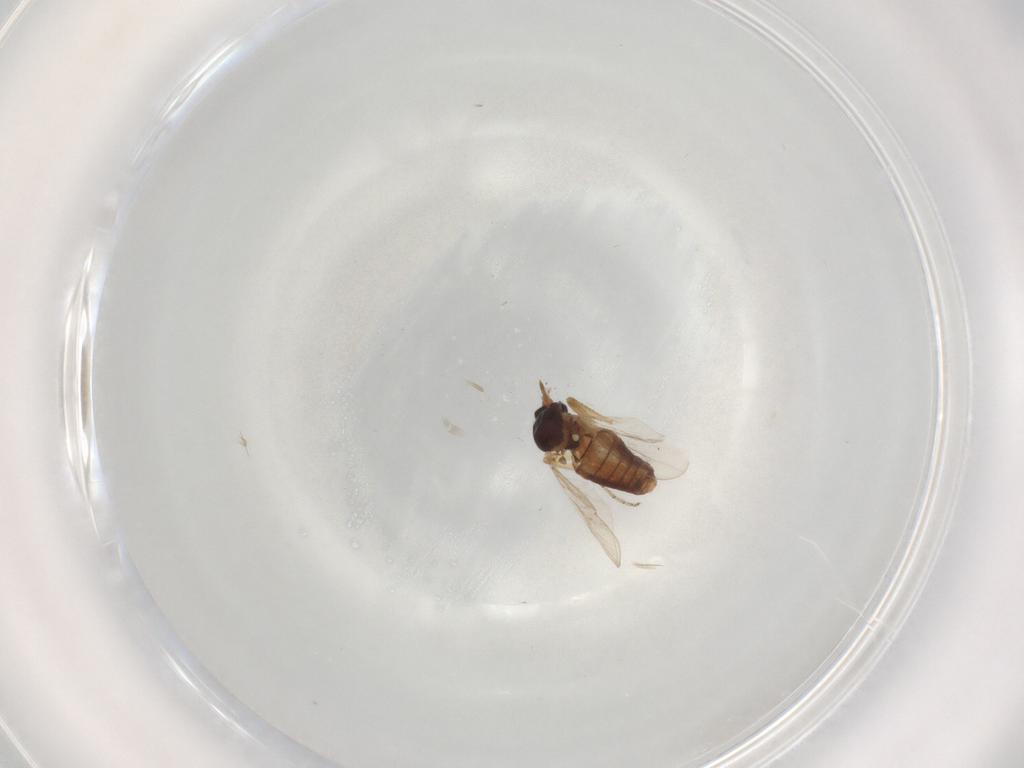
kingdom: Animalia
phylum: Arthropoda
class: Insecta
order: Diptera
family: Ceratopogonidae
